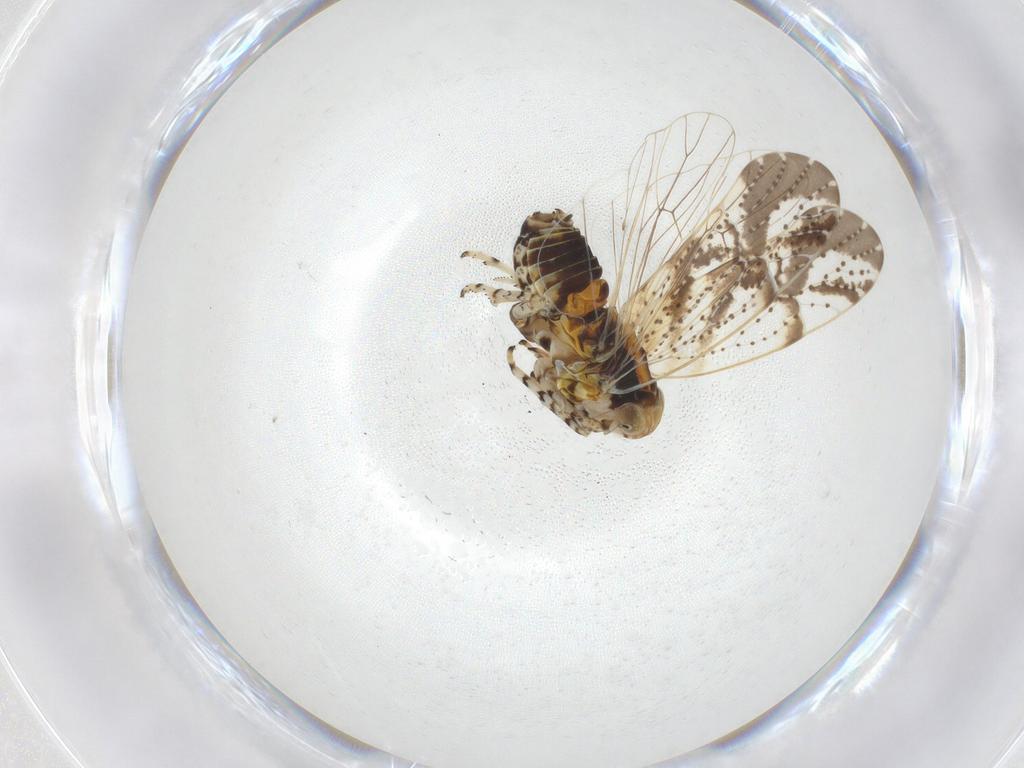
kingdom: Animalia
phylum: Arthropoda
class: Insecta
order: Hemiptera
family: Delphacidae
